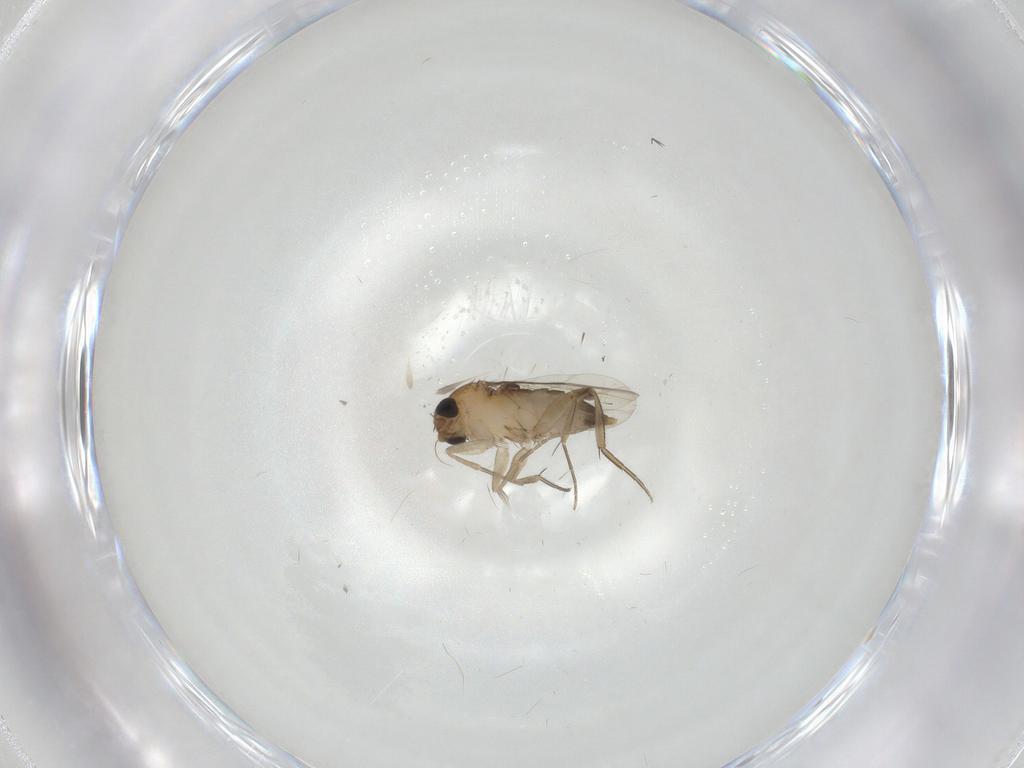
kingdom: Animalia
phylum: Arthropoda
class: Insecta
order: Diptera
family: Phoridae
